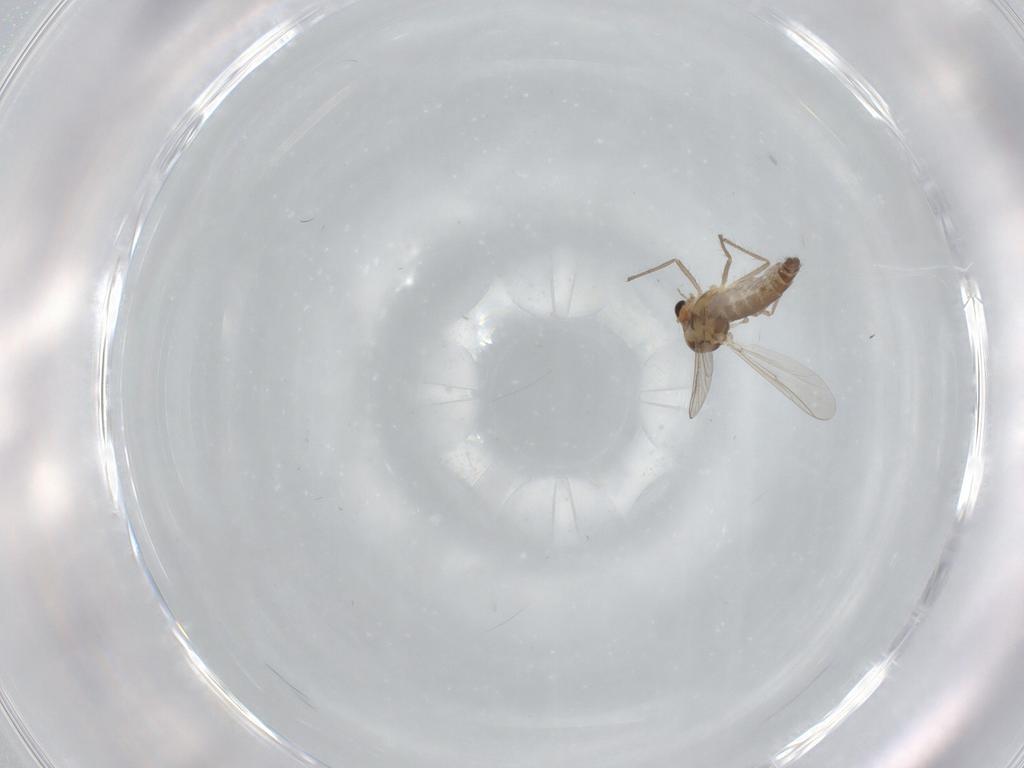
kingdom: Animalia
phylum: Arthropoda
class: Insecta
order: Diptera
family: Chironomidae
